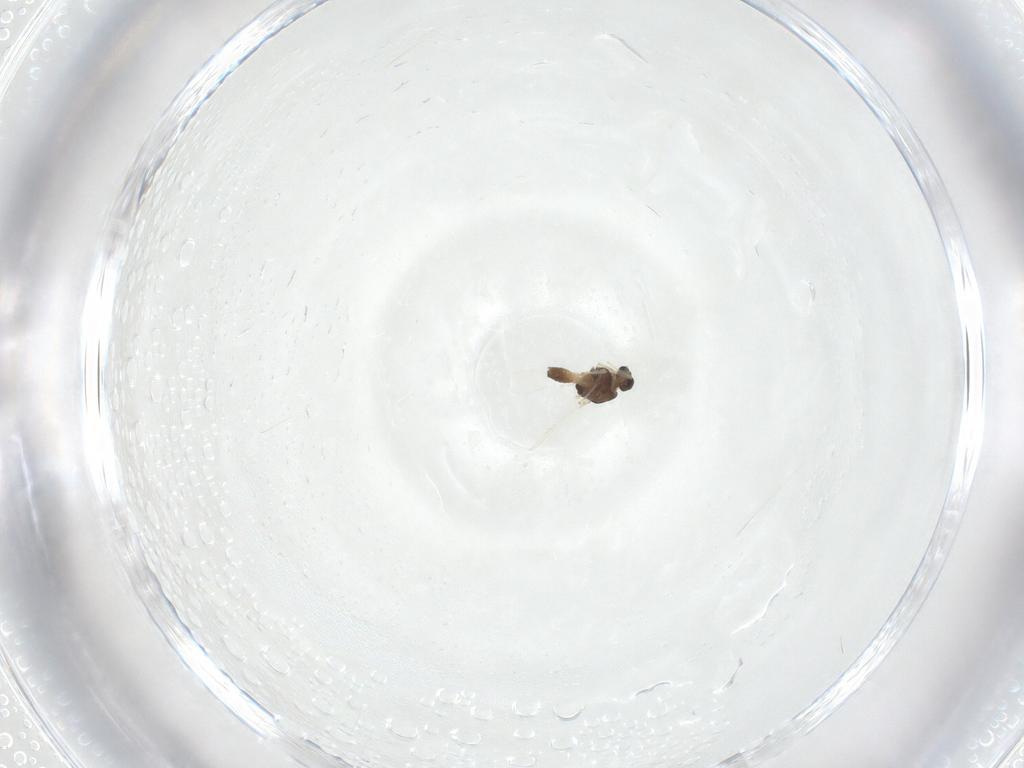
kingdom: Animalia
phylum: Arthropoda
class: Insecta
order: Diptera
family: Chironomidae
